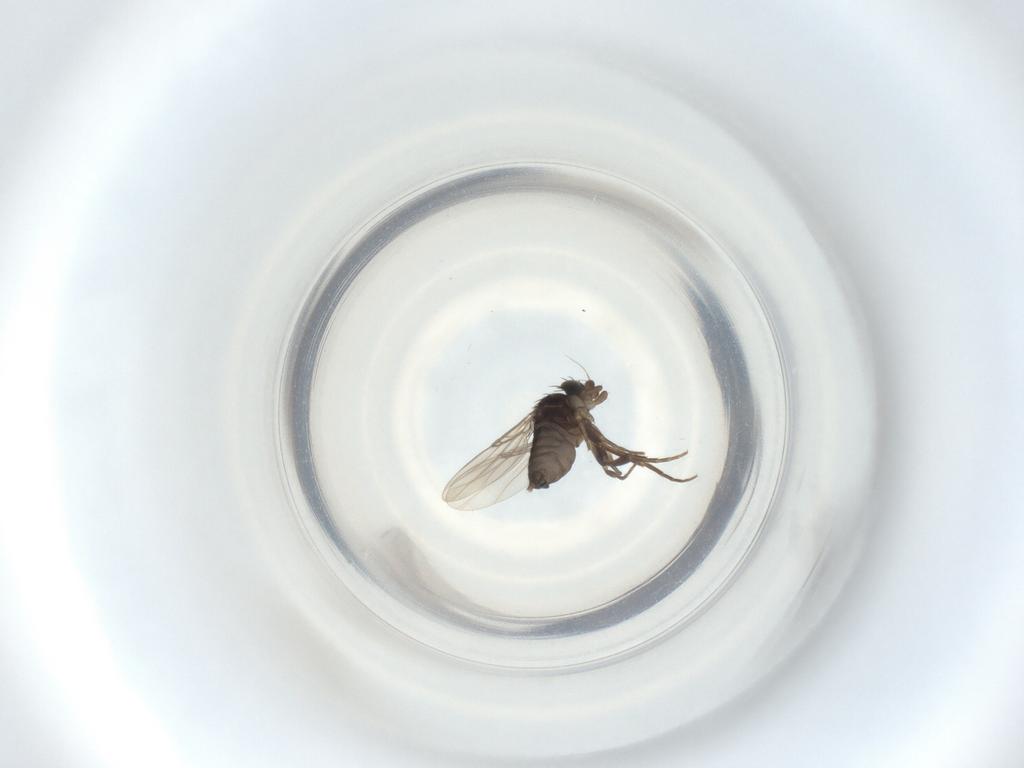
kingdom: Animalia
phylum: Arthropoda
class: Insecta
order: Diptera
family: Phoridae
